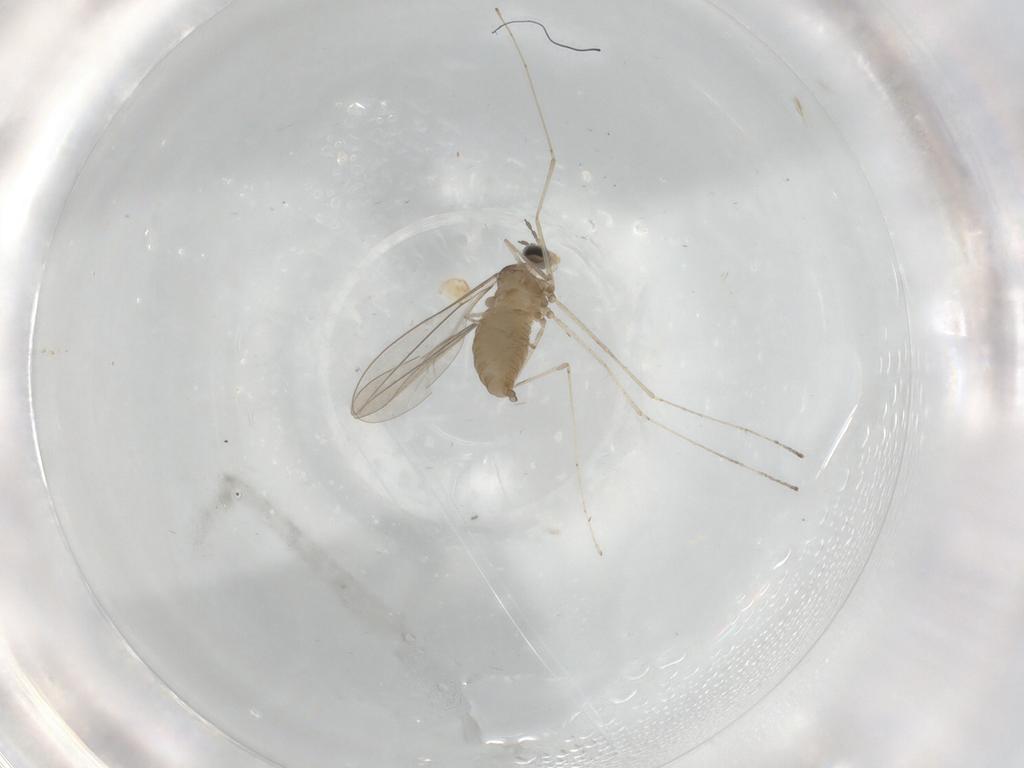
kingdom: Animalia
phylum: Arthropoda
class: Insecta
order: Diptera
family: Cecidomyiidae
